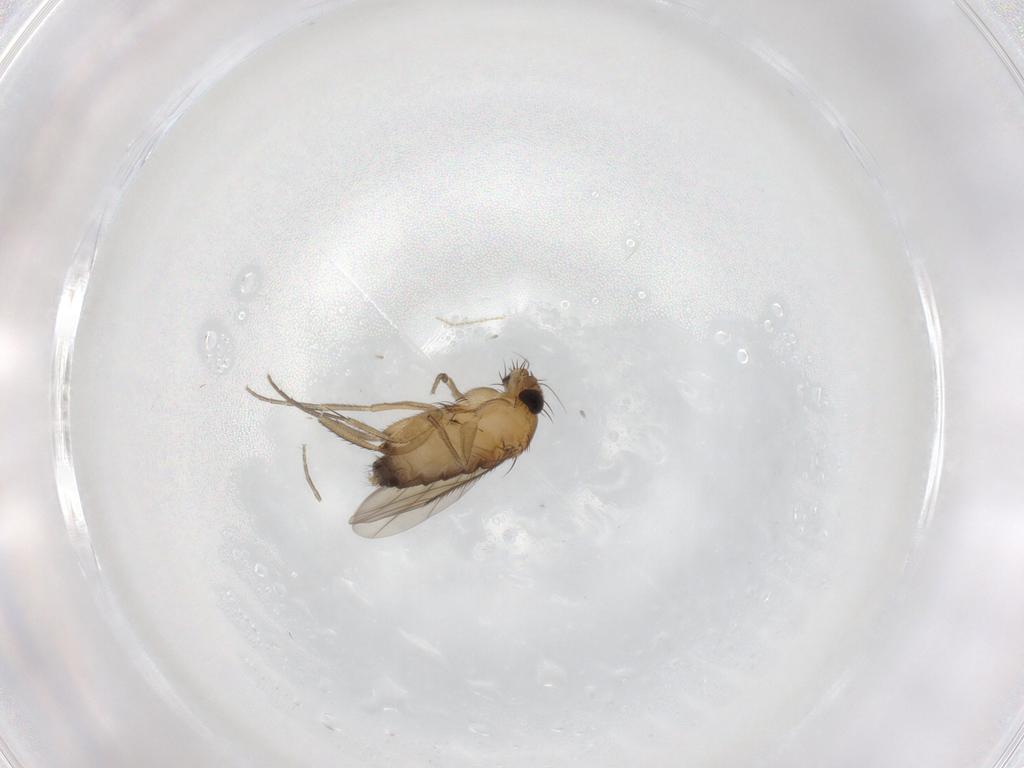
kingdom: Animalia
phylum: Arthropoda
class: Insecta
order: Diptera
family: Phoridae
